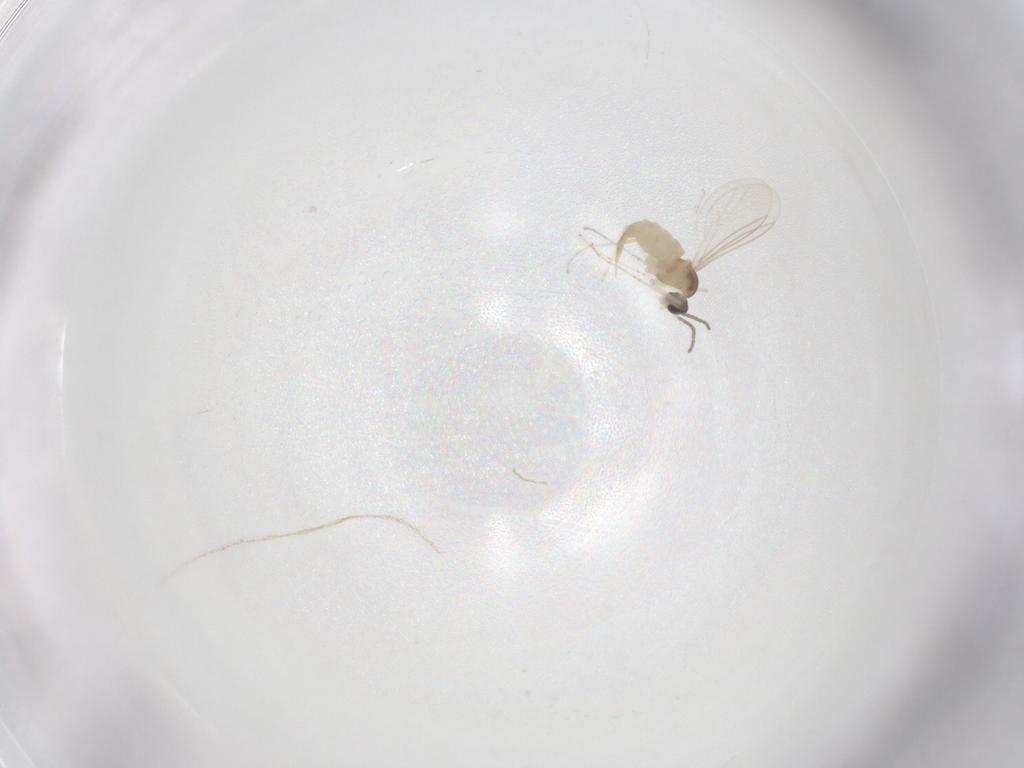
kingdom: Animalia
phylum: Arthropoda
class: Insecta
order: Diptera
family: Cecidomyiidae
